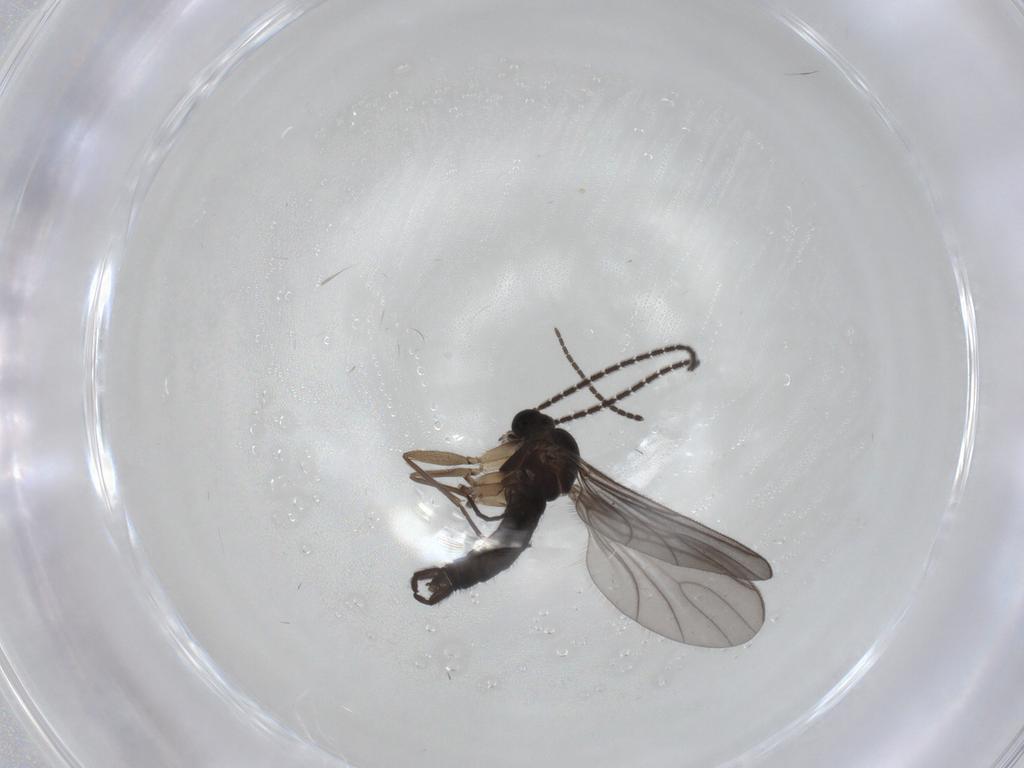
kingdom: Animalia
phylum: Arthropoda
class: Insecta
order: Diptera
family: Sciaridae
